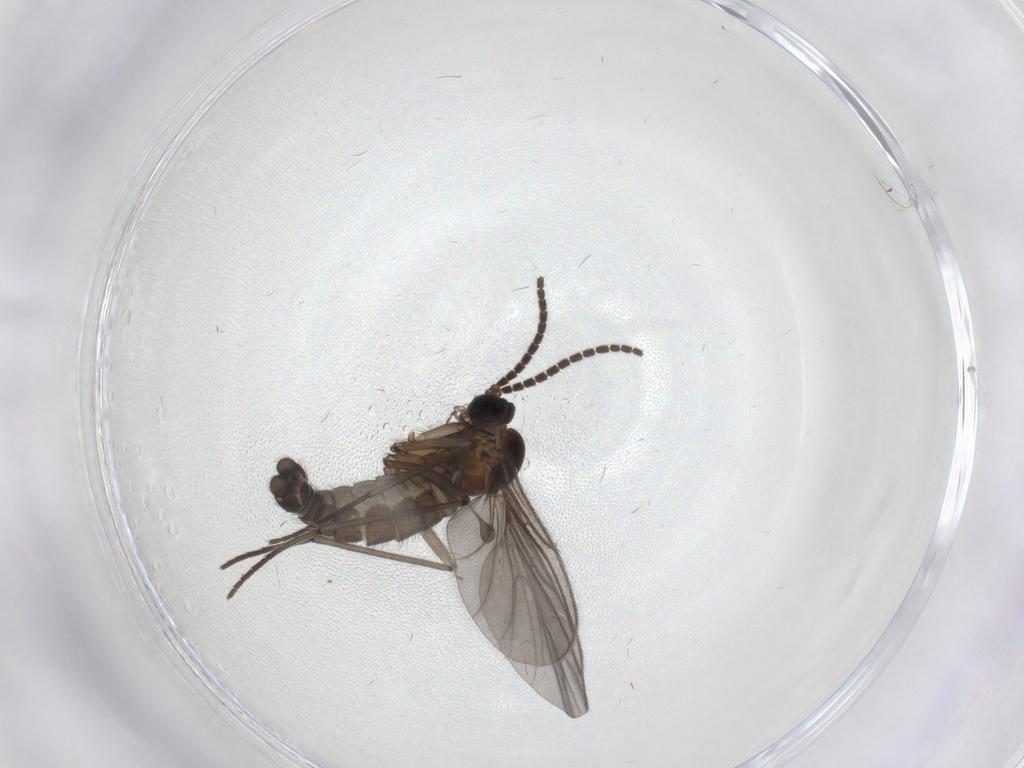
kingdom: Animalia
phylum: Arthropoda
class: Insecta
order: Diptera
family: Sciaridae
